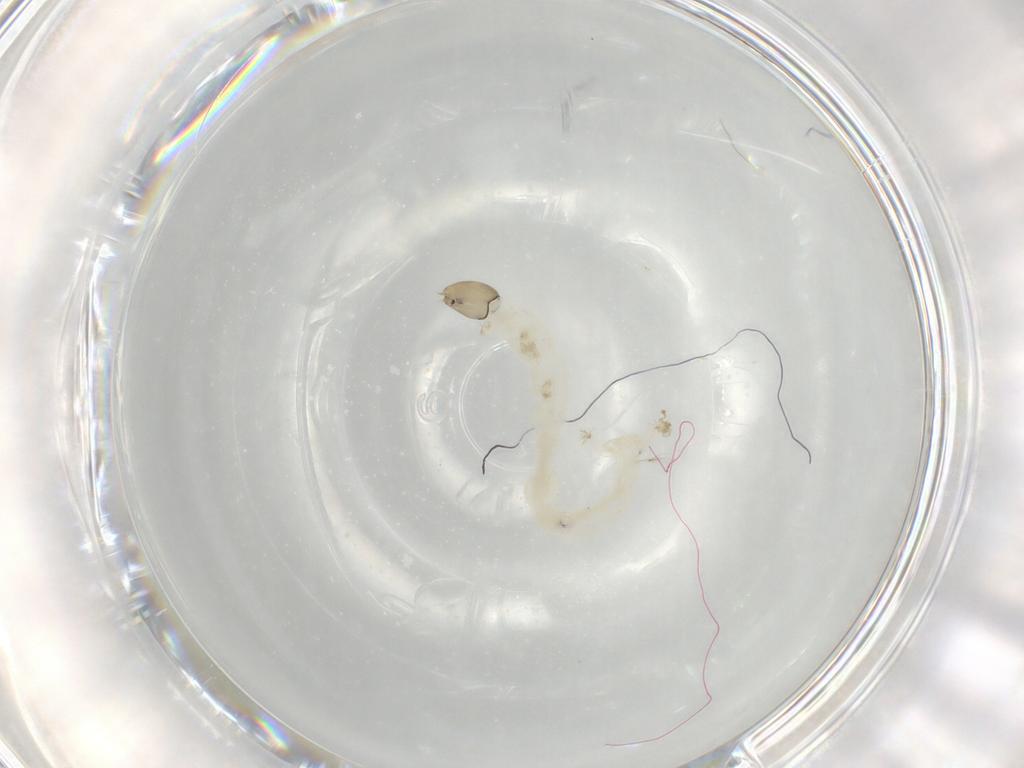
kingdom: Animalia
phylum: Arthropoda
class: Insecta
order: Diptera
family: Chironomidae
